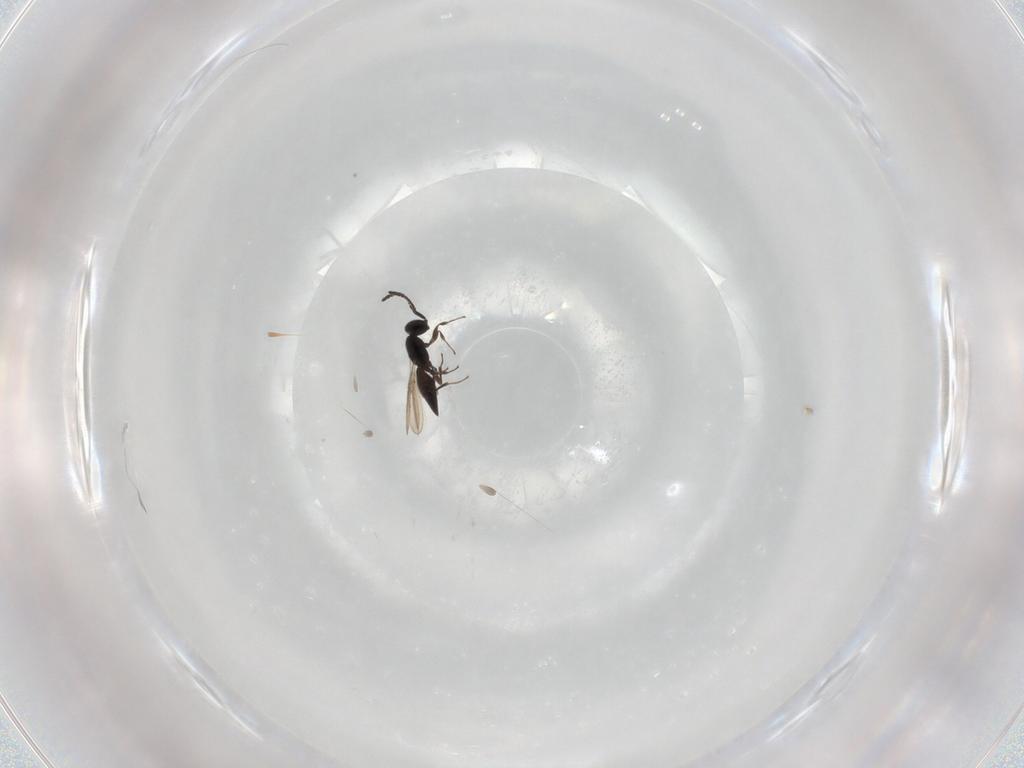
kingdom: Animalia
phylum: Arthropoda
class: Insecta
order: Hymenoptera
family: Scelionidae
